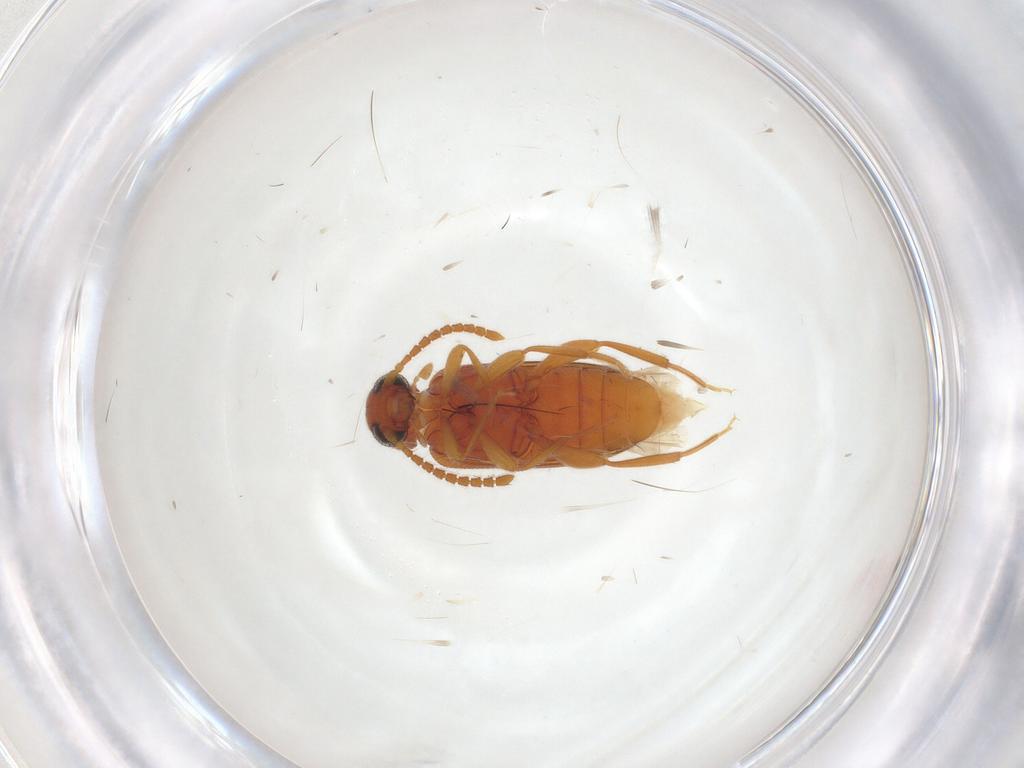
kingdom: Animalia
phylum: Arthropoda
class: Insecta
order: Coleoptera
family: Aderidae
